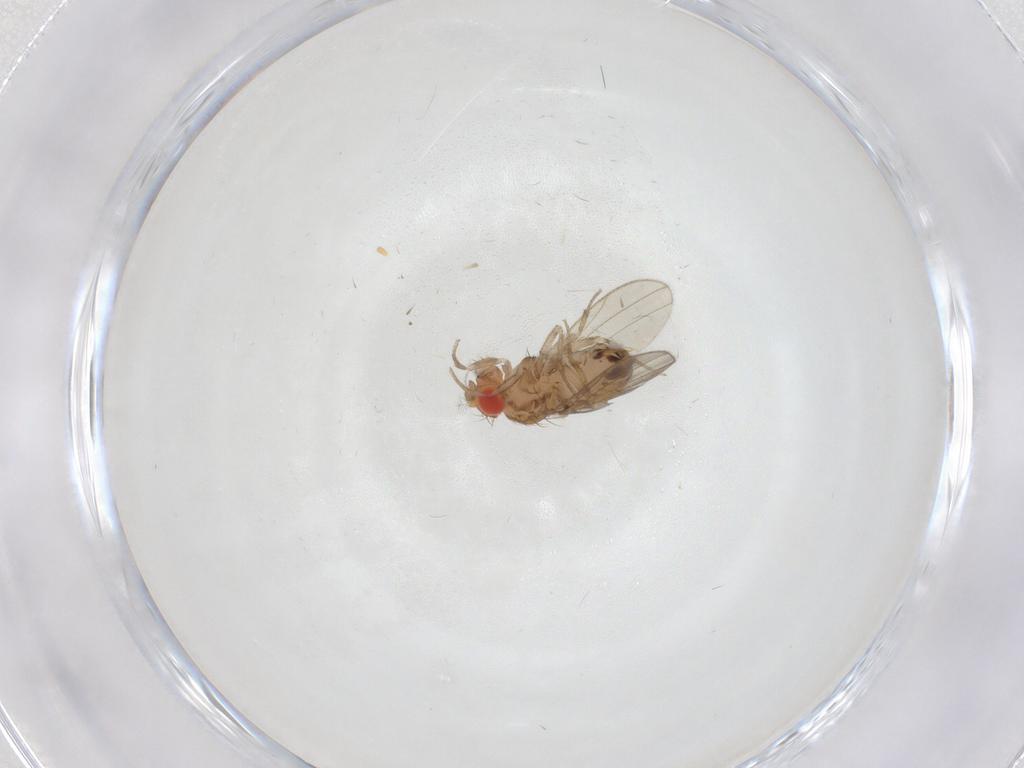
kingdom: Animalia
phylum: Arthropoda
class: Insecta
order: Diptera
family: Drosophilidae
